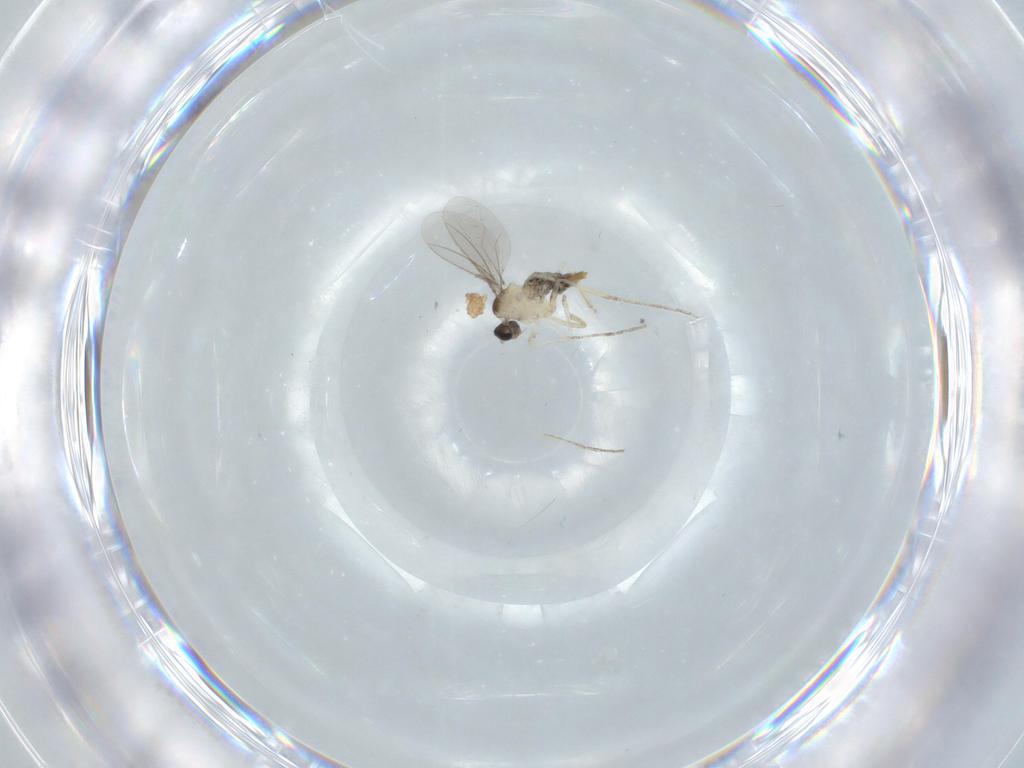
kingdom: Animalia
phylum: Arthropoda
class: Insecta
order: Diptera
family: Cecidomyiidae
